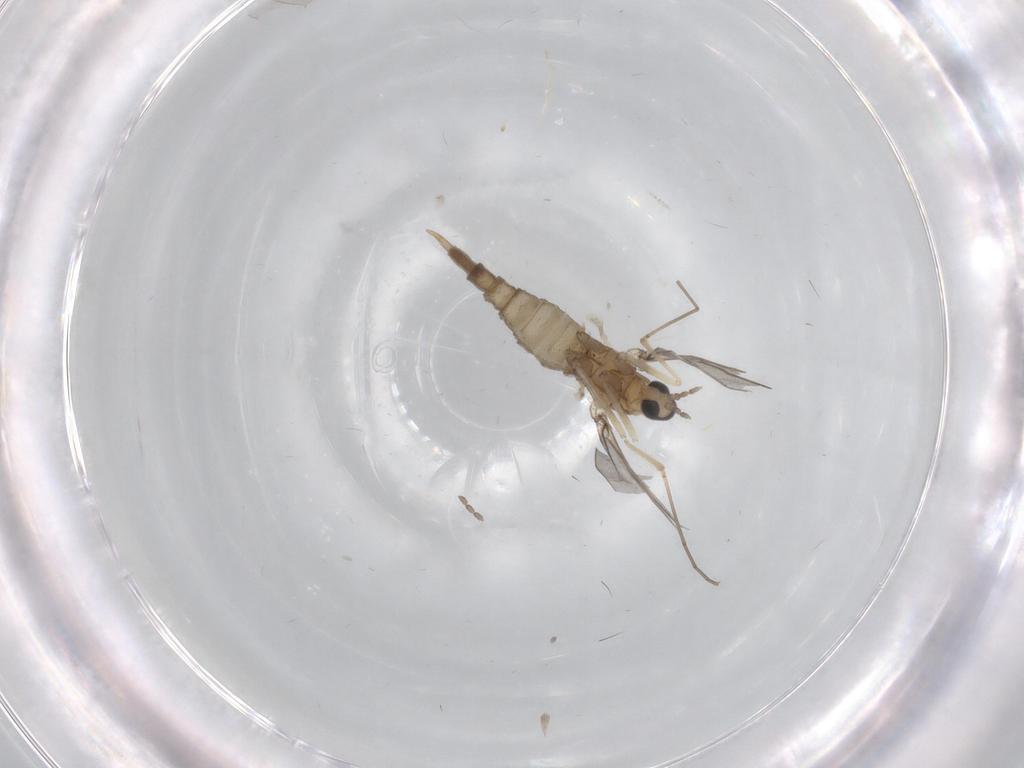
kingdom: Animalia
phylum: Arthropoda
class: Insecta
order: Diptera
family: Cecidomyiidae
